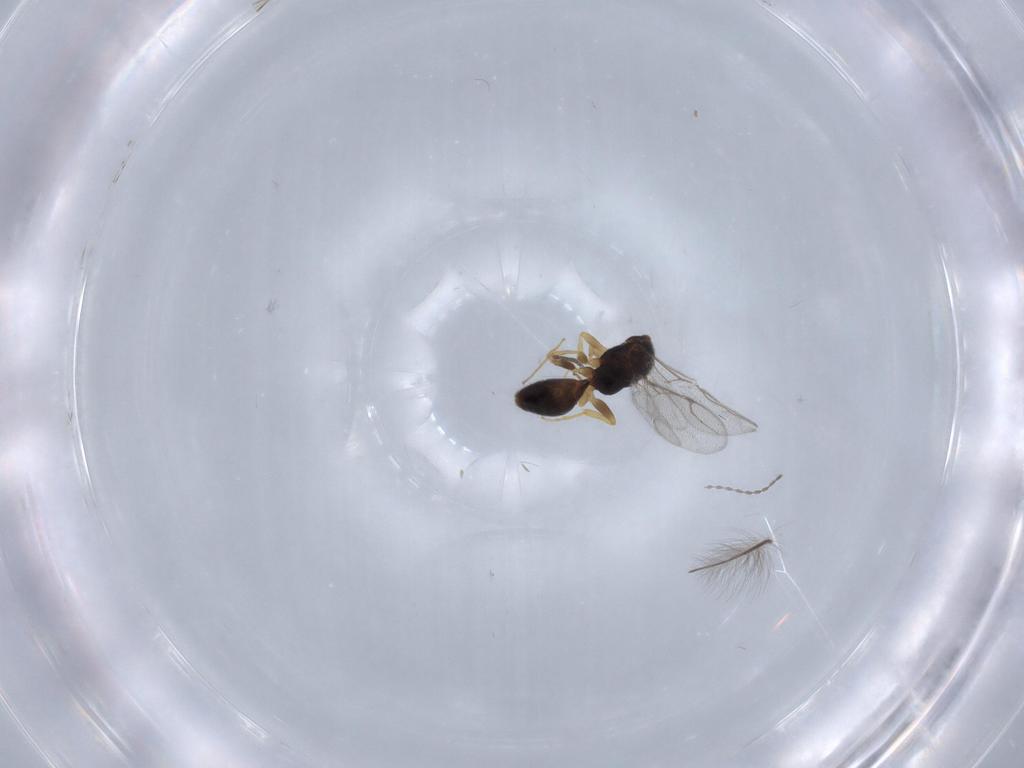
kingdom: Animalia
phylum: Arthropoda
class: Insecta
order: Hymenoptera
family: Bethylidae
